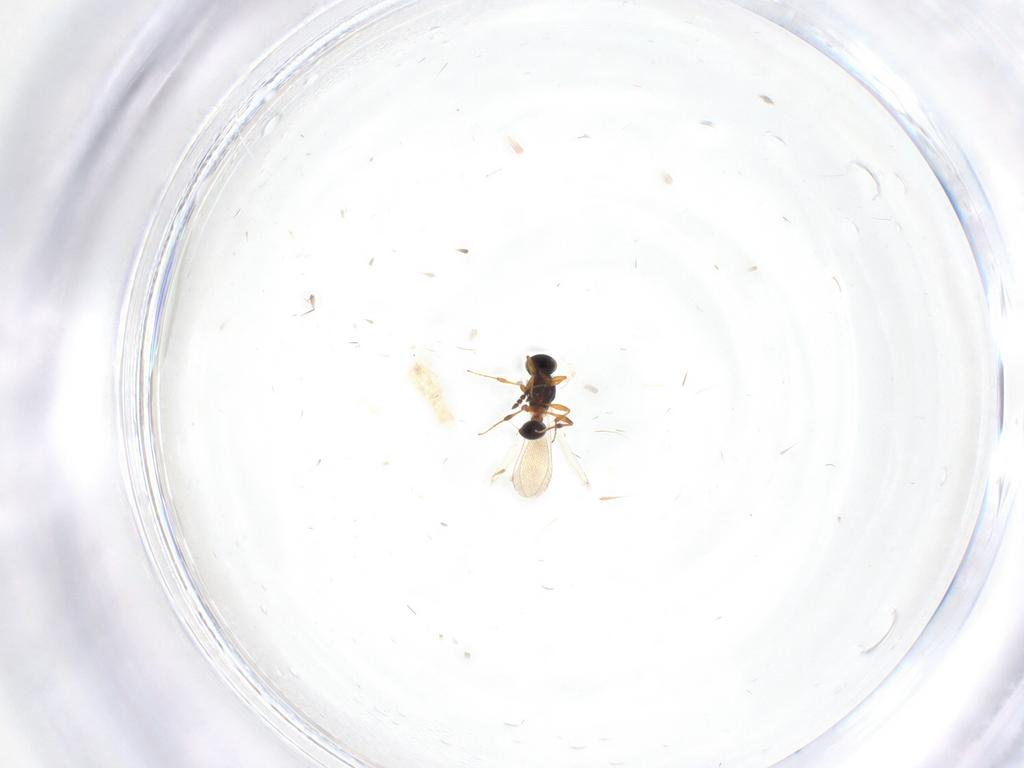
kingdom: Animalia
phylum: Arthropoda
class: Insecta
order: Hymenoptera
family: Platygastridae
